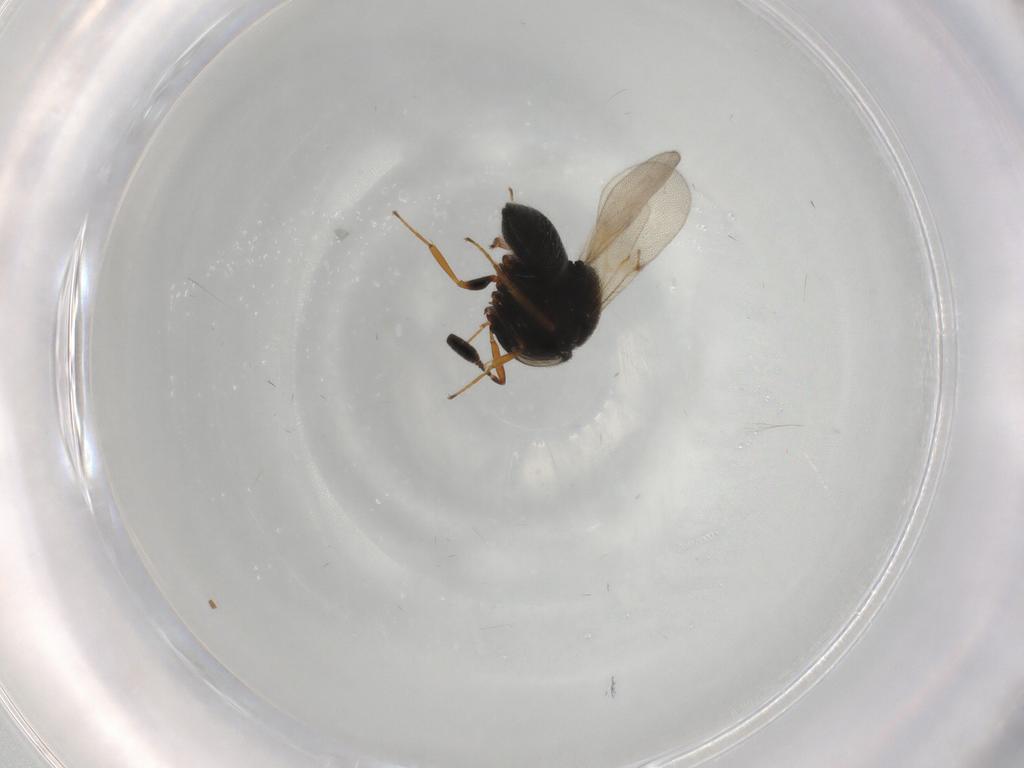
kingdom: Animalia
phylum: Arthropoda
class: Insecta
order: Hymenoptera
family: Scelionidae
